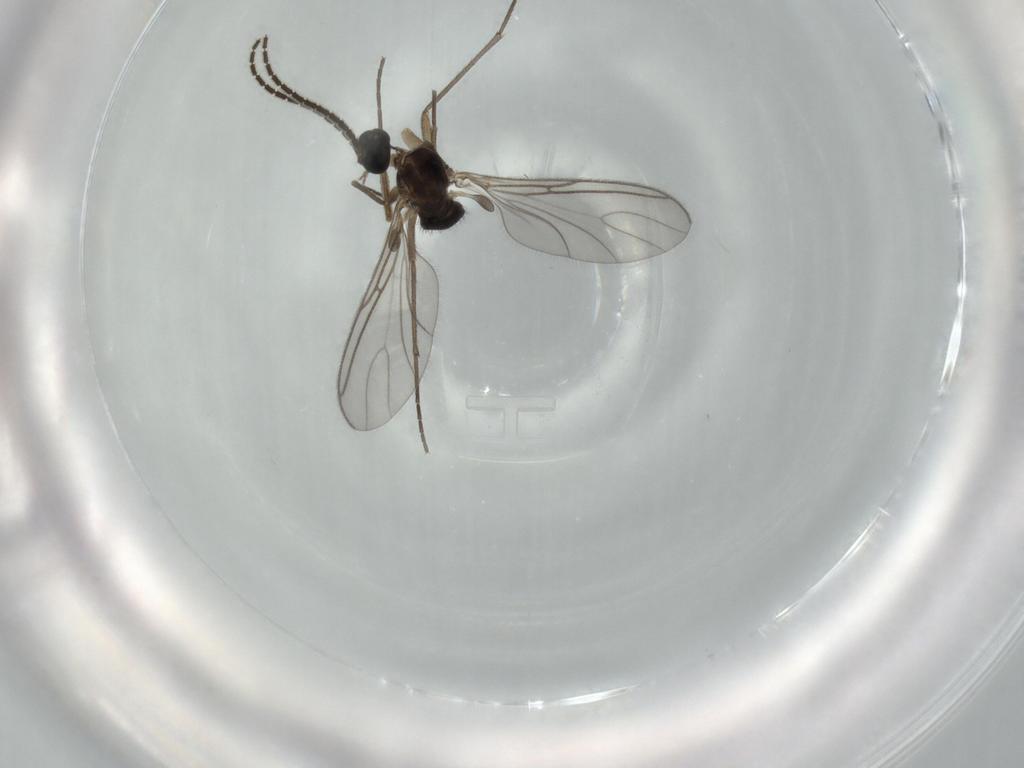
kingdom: Animalia
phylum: Arthropoda
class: Insecta
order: Diptera
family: Sciaridae
